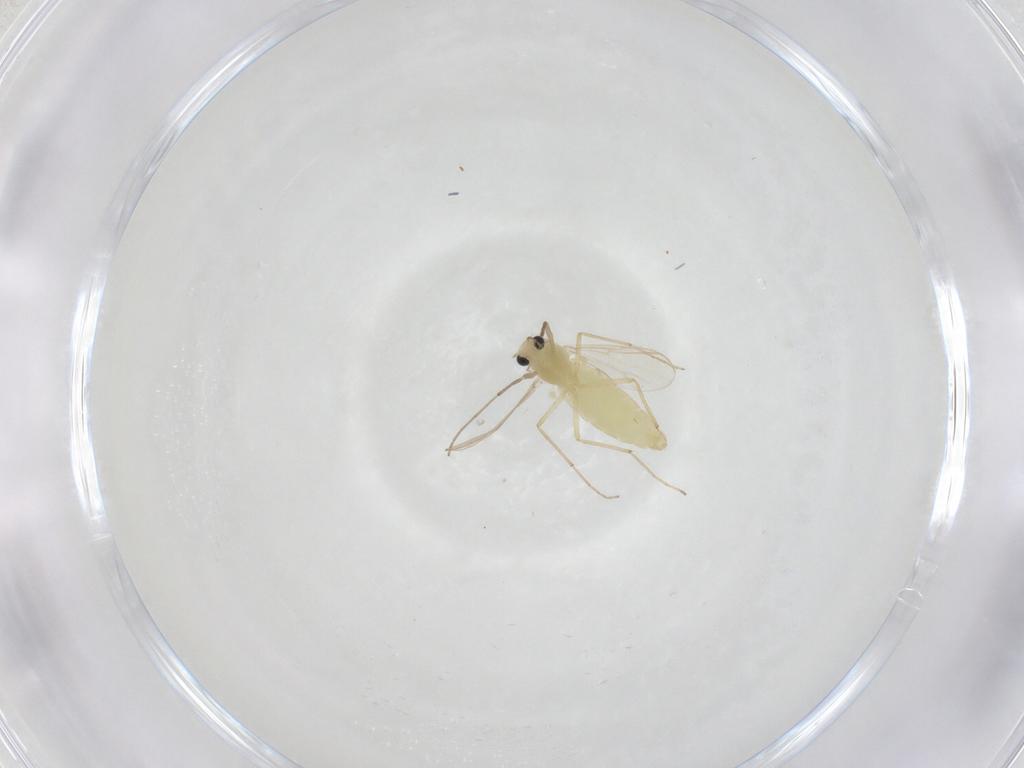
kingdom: Animalia
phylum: Arthropoda
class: Insecta
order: Diptera
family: Chironomidae
